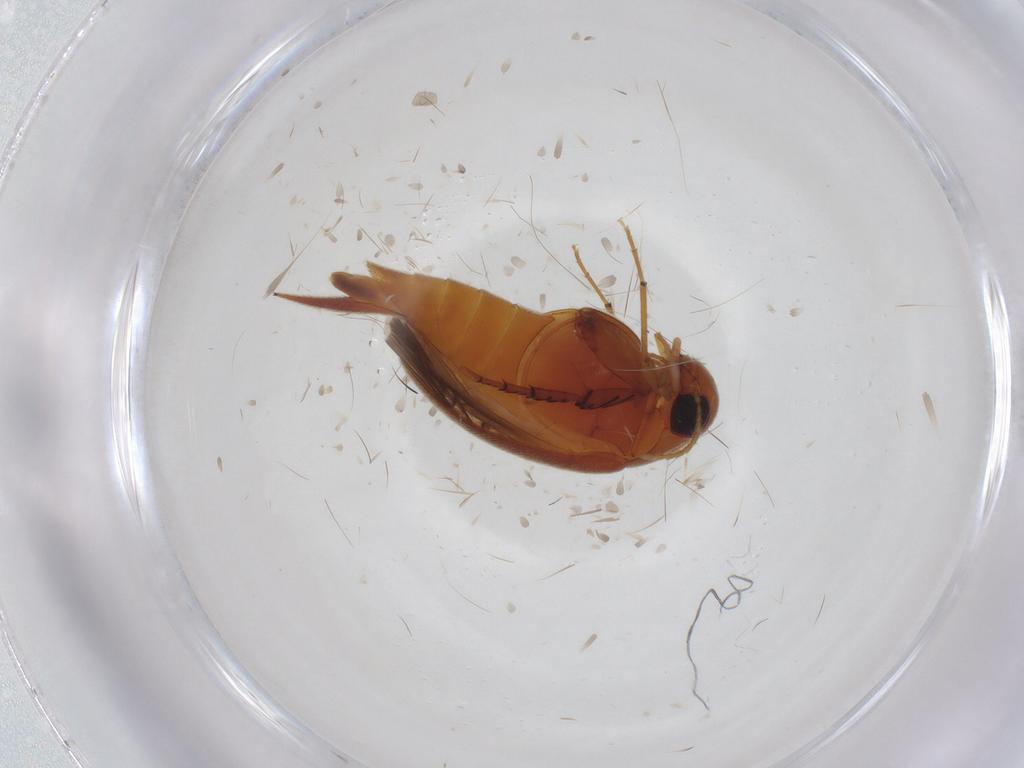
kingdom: Animalia
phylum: Arthropoda
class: Insecta
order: Coleoptera
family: Mordellidae
